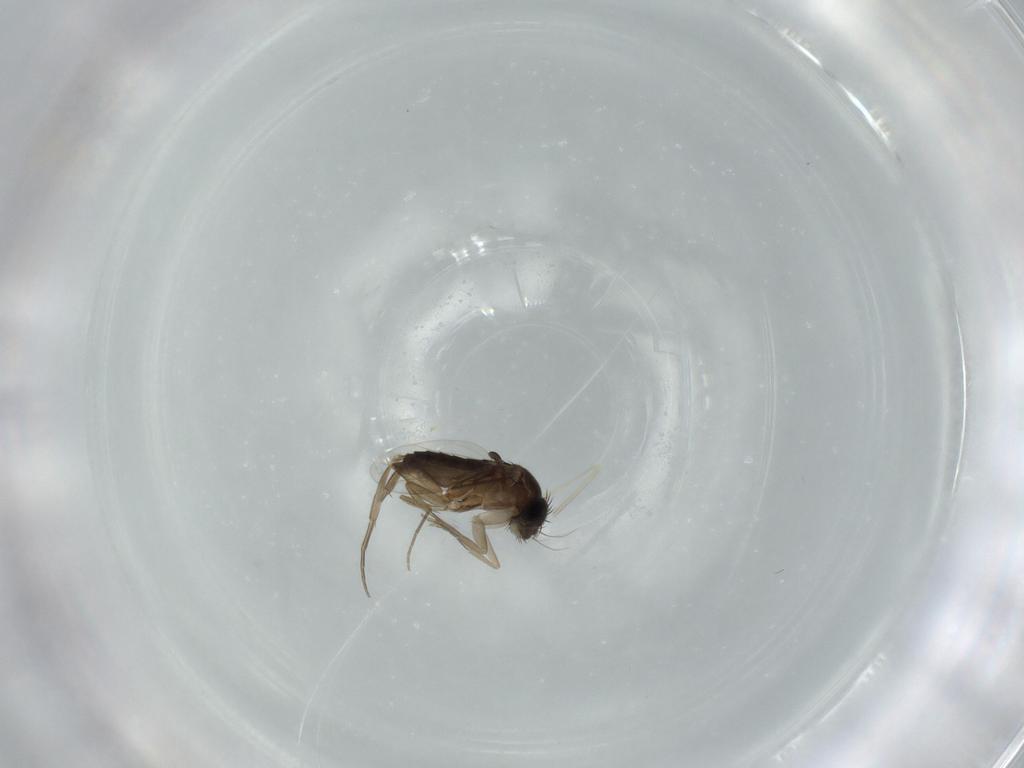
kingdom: Animalia
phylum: Arthropoda
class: Insecta
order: Diptera
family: Cecidomyiidae
